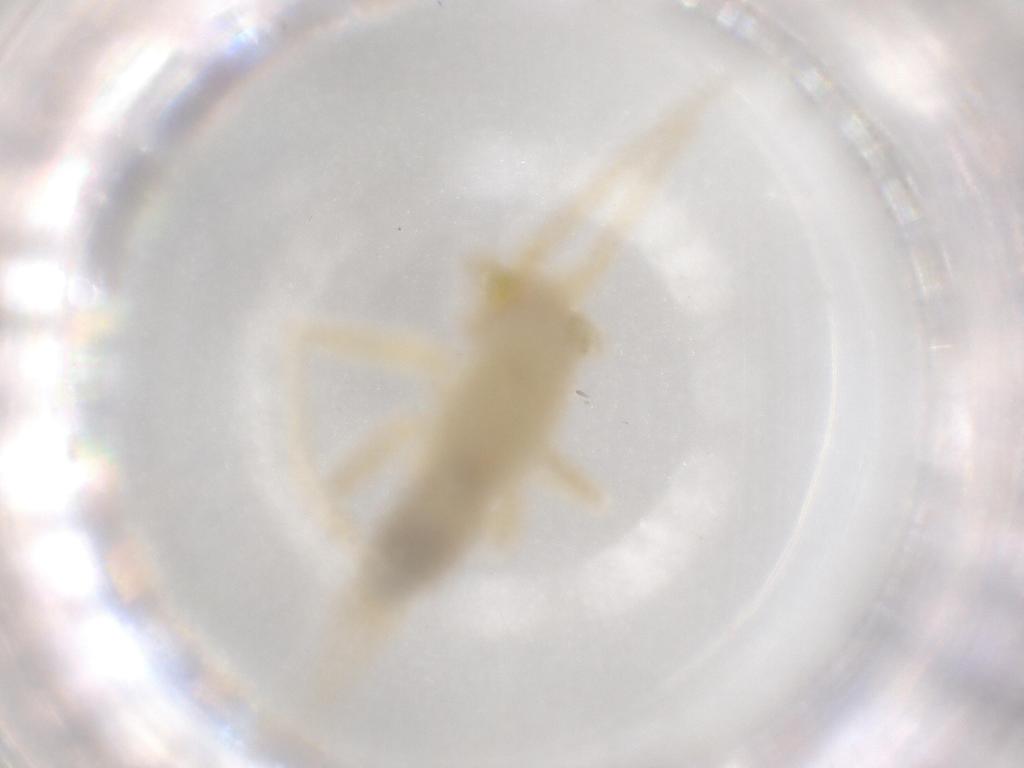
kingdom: Animalia
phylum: Arthropoda
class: Insecta
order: Orthoptera
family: Trigonidiidae
